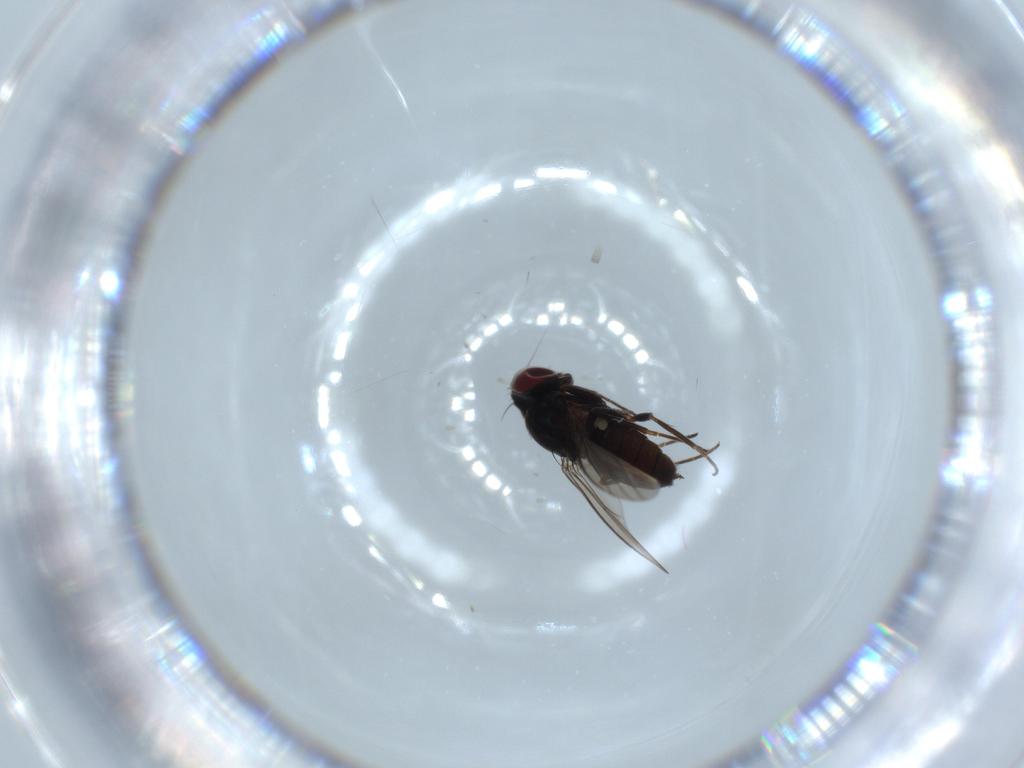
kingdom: Animalia
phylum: Arthropoda
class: Insecta
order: Diptera
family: Dolichopodidae
